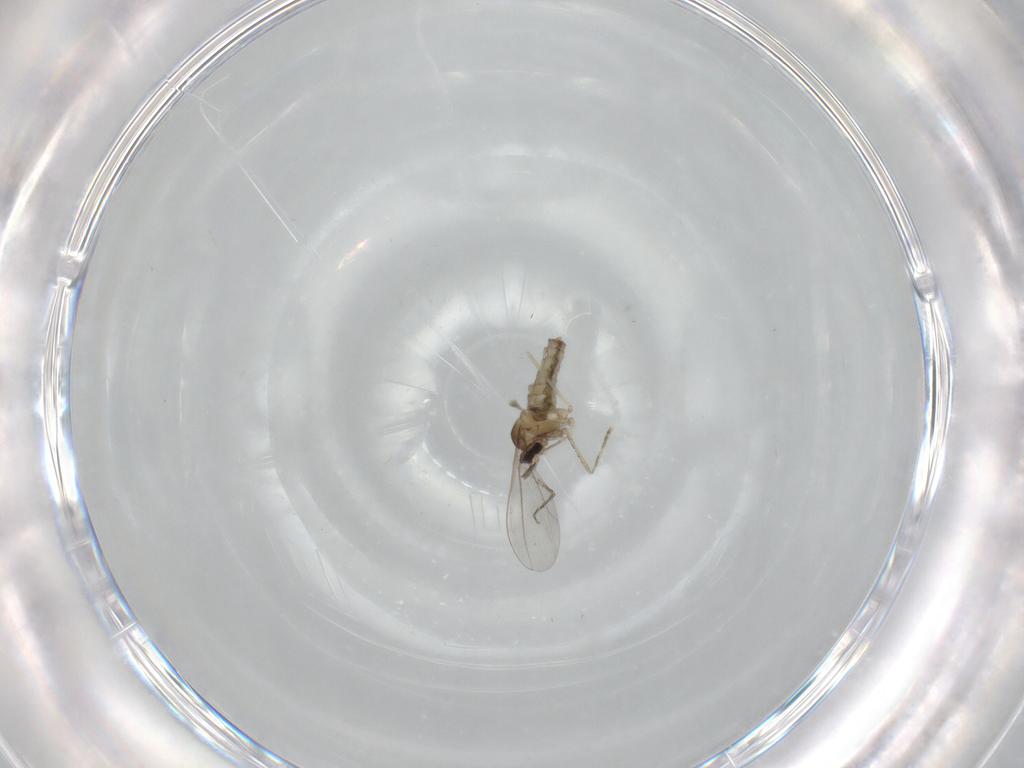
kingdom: Animalia
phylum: Arthropoda
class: Insecta
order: Diptera
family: Cecidomyiidae
